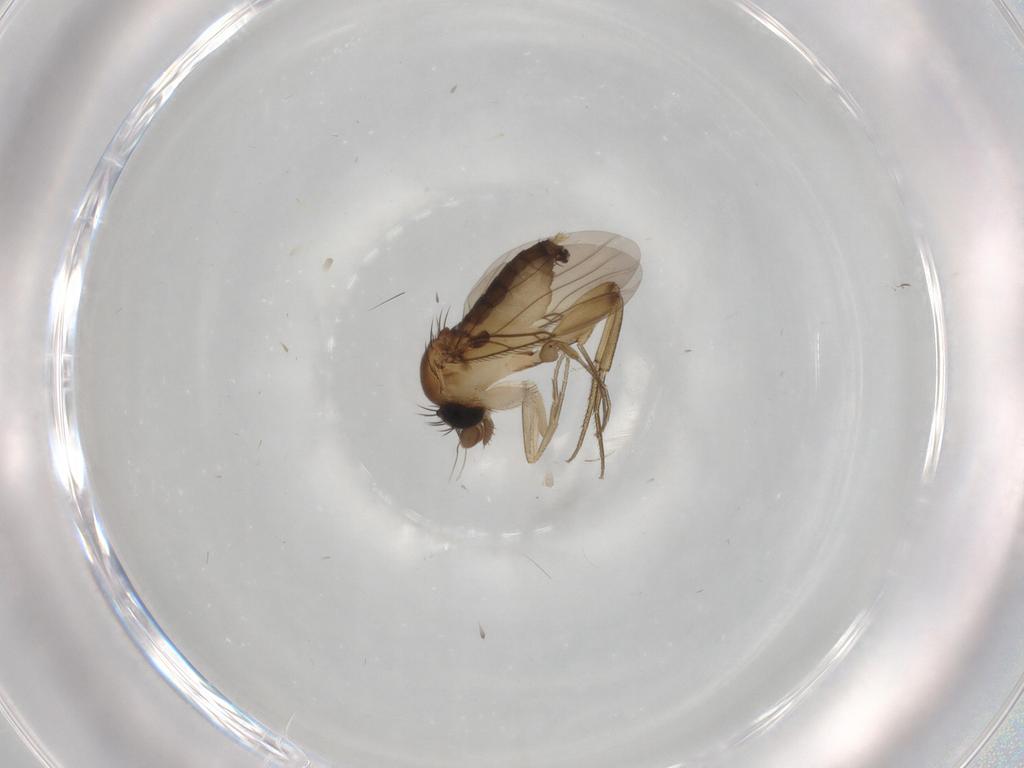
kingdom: Animalia
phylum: Arthropoda
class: Insecta
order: Diptera
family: Phoridae
